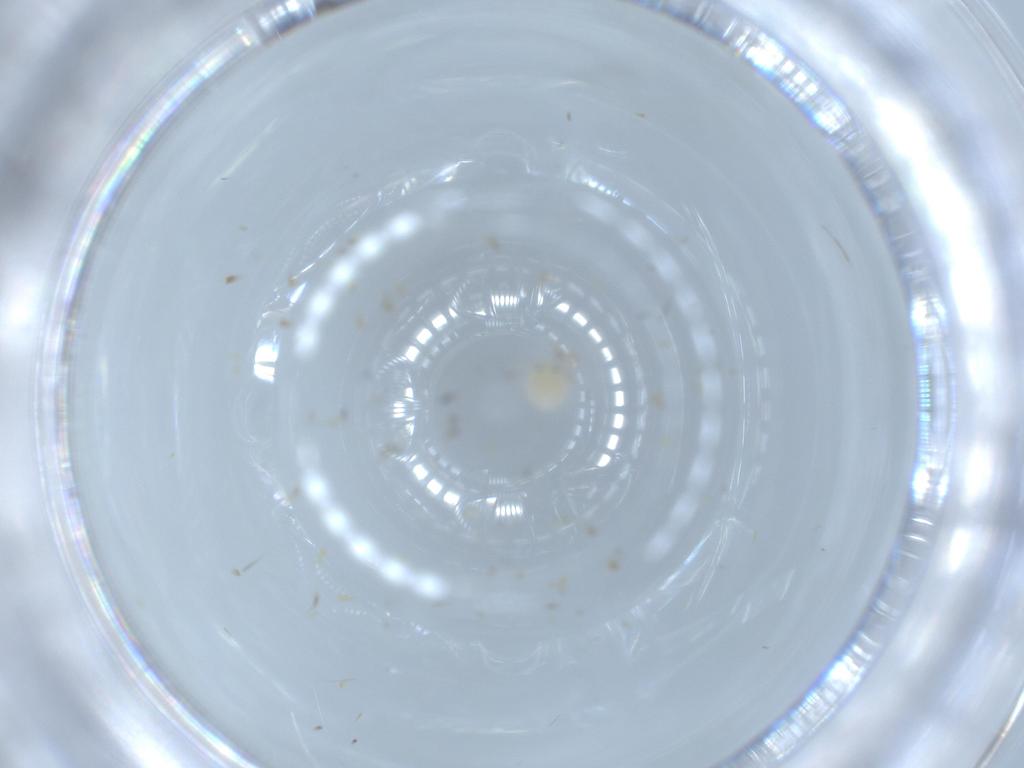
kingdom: Animalia
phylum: Arthropoda
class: Arachnida
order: Trombidiformes
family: Arrenuridae
